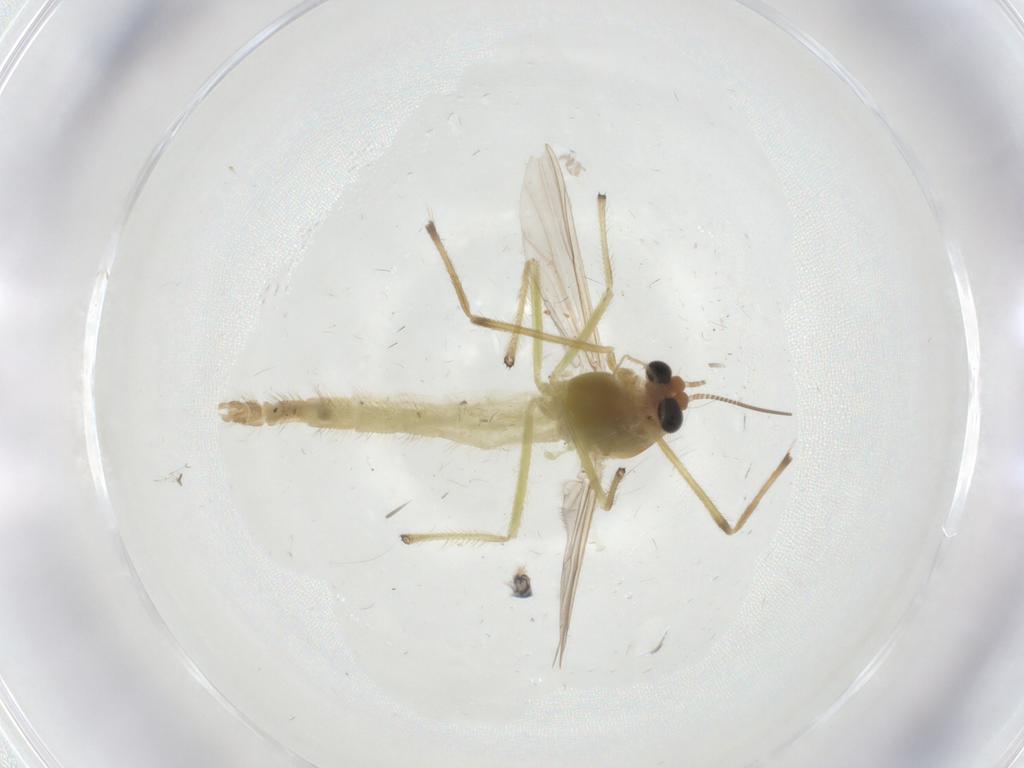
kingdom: Animalia
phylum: Arthropoda
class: Insecta
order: Diptera
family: Chironomidae
